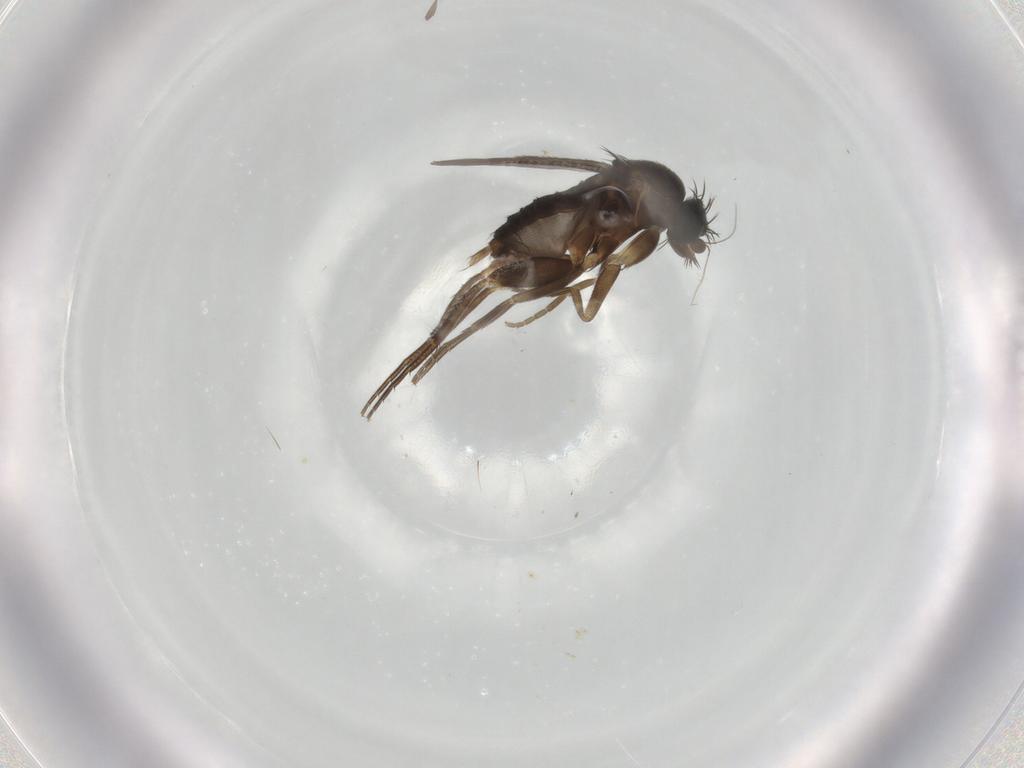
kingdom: Animalia
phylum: Arthropoda
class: Insecta
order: Diptera
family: Phoridae
